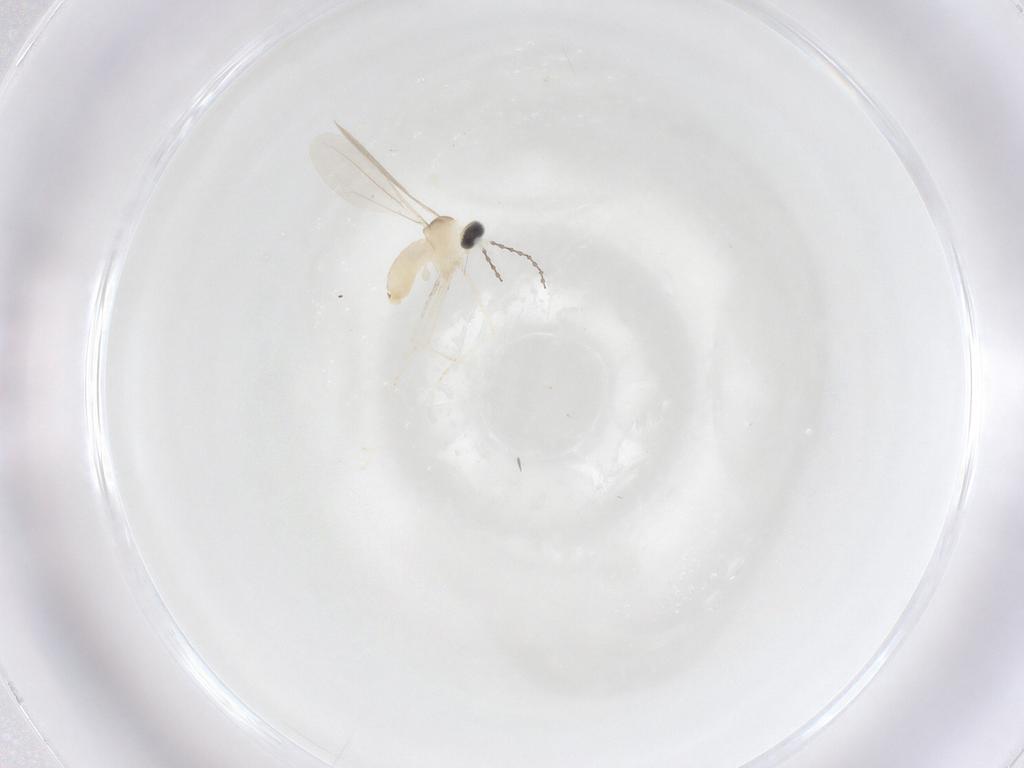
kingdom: Animalia
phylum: Arthropoda
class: Insecta
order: Diptera
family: Cecidomyiidae
